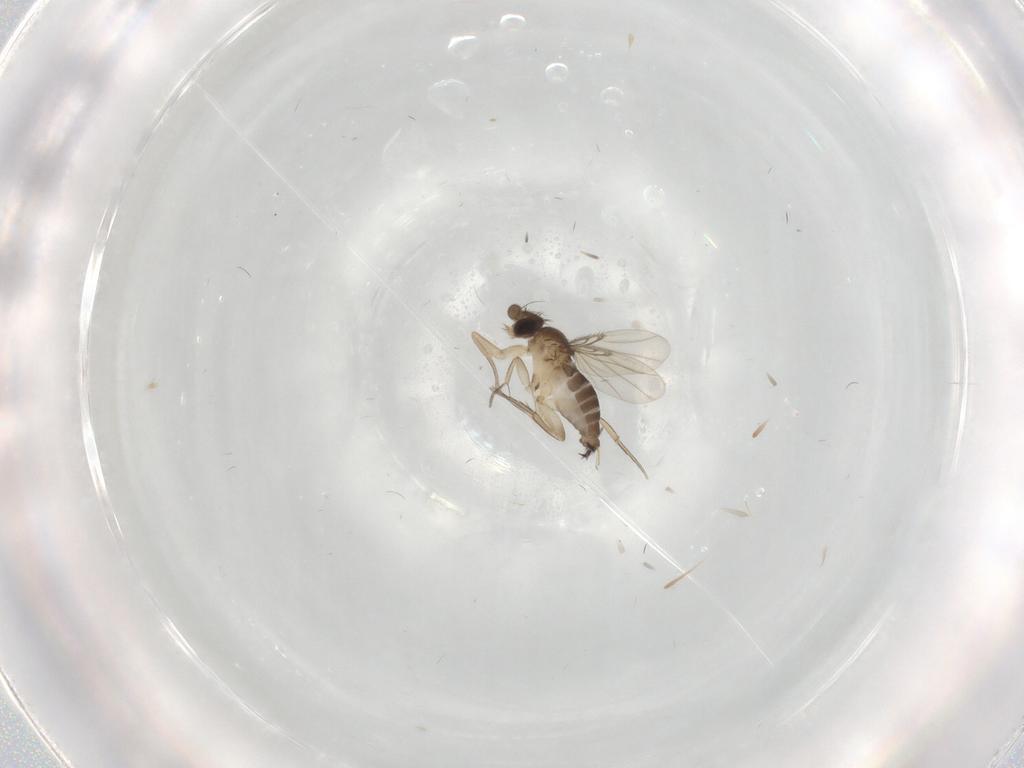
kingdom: Animalia
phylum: Arthropoda
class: Insecta
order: Diptera
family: Phoridae
